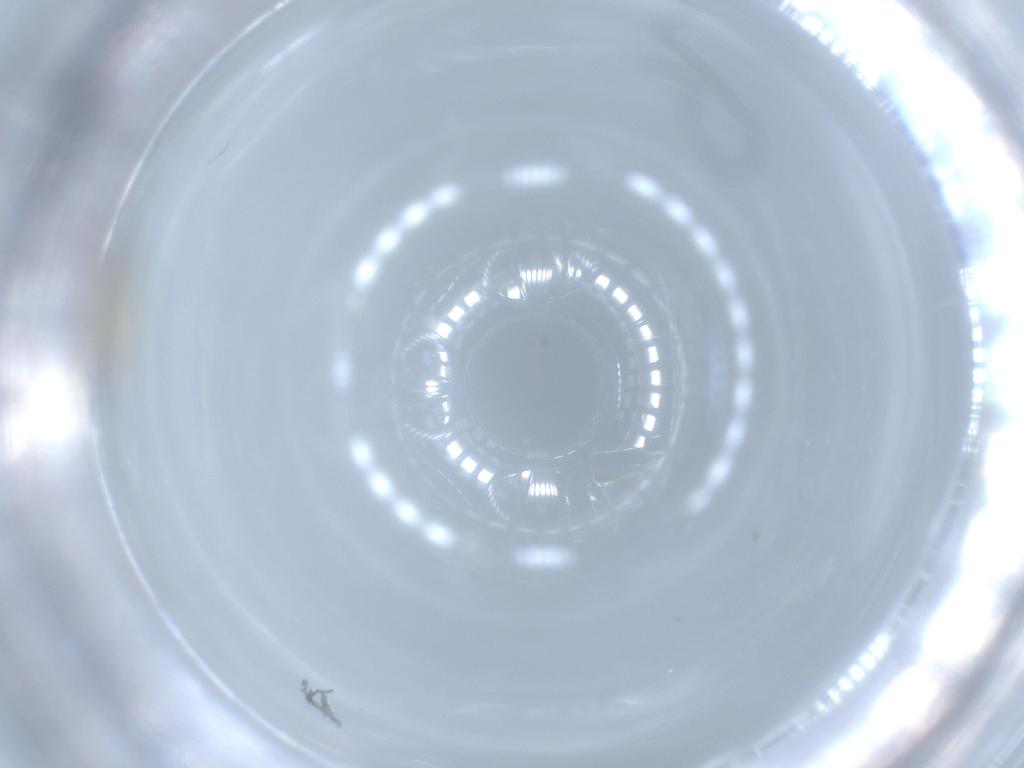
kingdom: Animalia
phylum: Arthropoda
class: Insecta
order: Diptera
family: Ceratopogonidae
